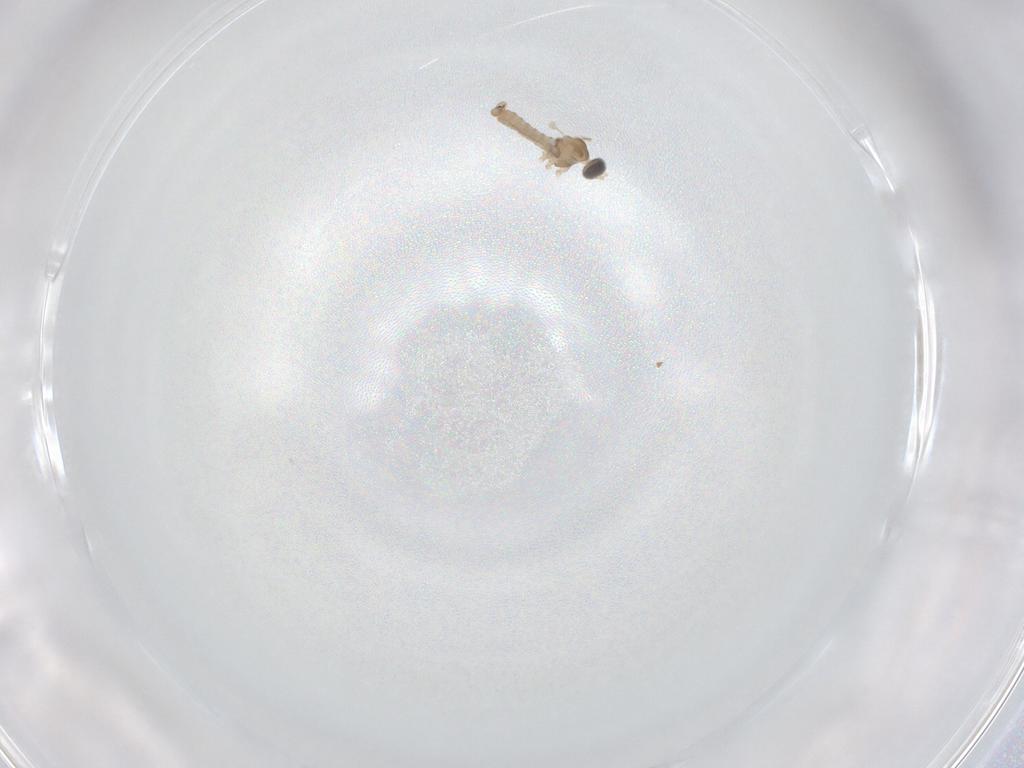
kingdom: Animalia
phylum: Arthropoda
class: Insecta
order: Diptera
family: Cecidomyiidae
